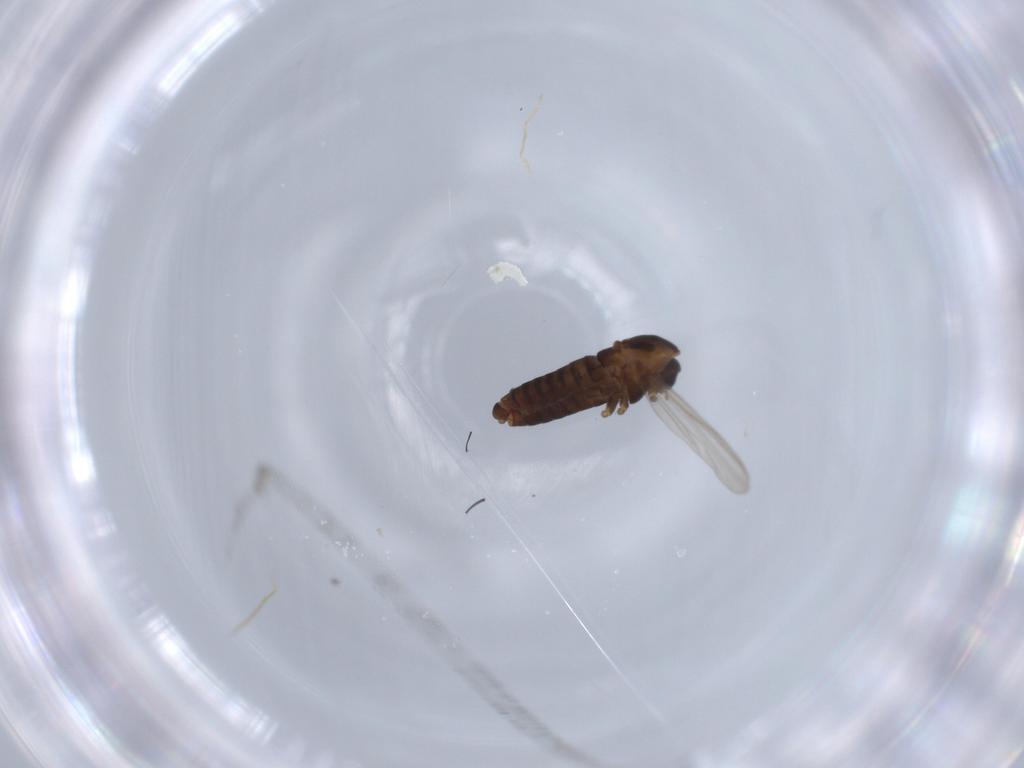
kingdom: Animalia
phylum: Arthropoda
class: Insecta
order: Diptera
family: Chironomidae
